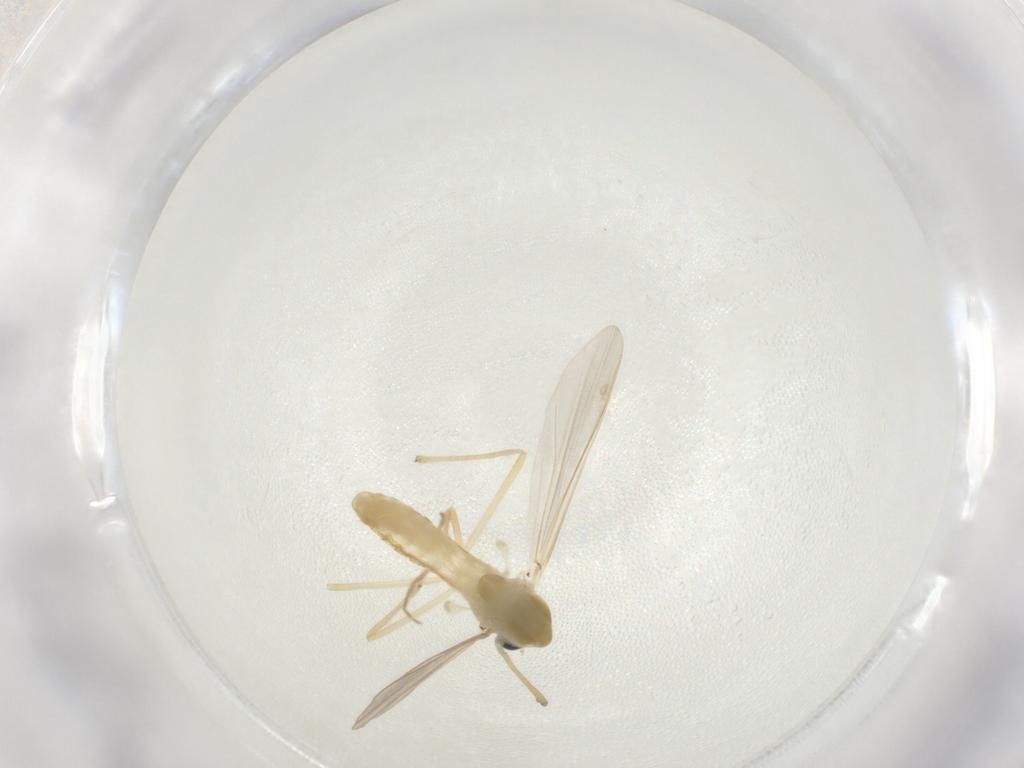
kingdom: Animalia
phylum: Arthropoda
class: Insecta
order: Diptera
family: Chironomidae
